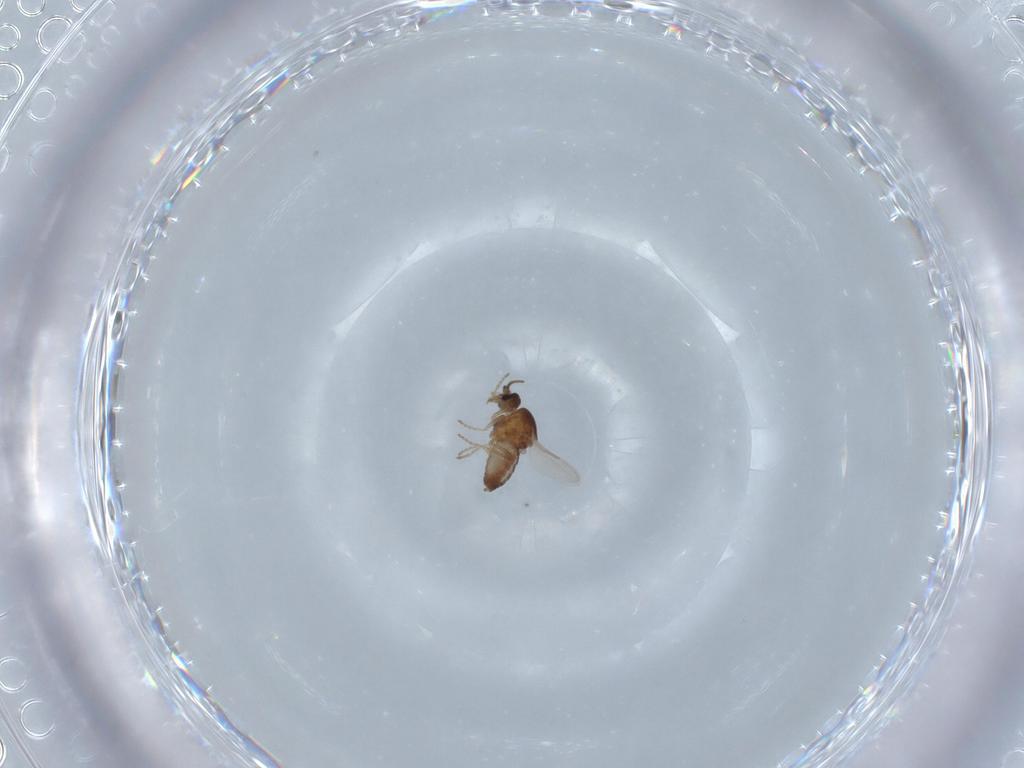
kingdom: Animalia
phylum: Arthropoda
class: Insecta
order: Diptera
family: Ceratopogonidae
